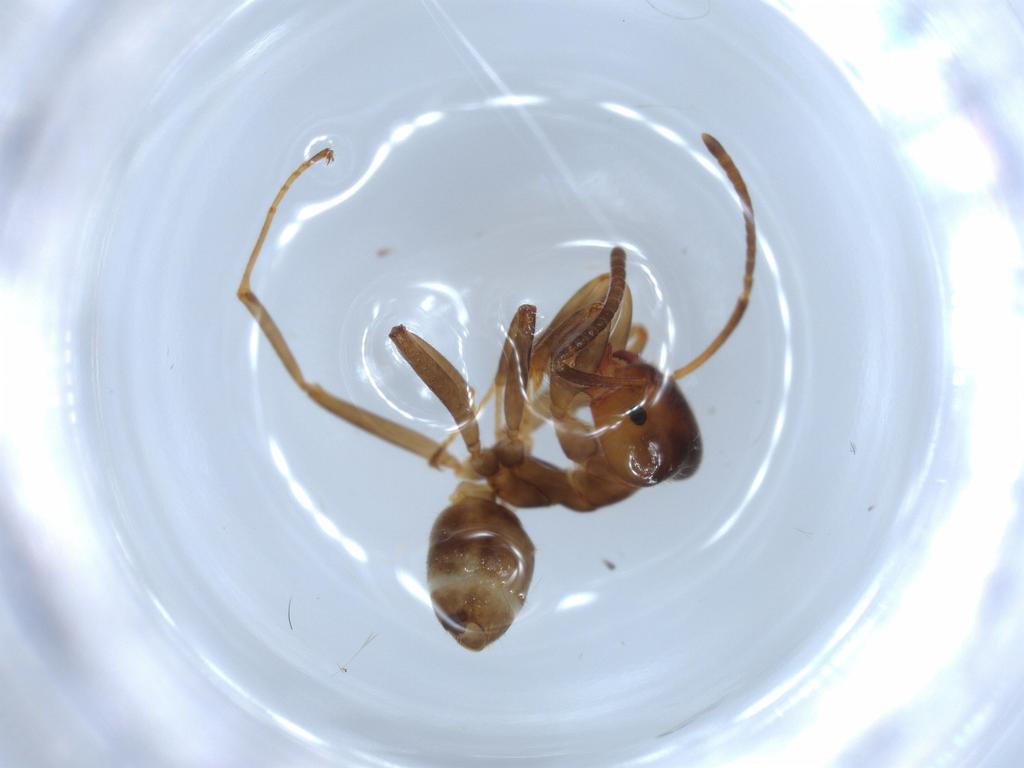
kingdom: Animalia
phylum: Arthropoda
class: Insecta
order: Hymenoptera
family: Formicidae
